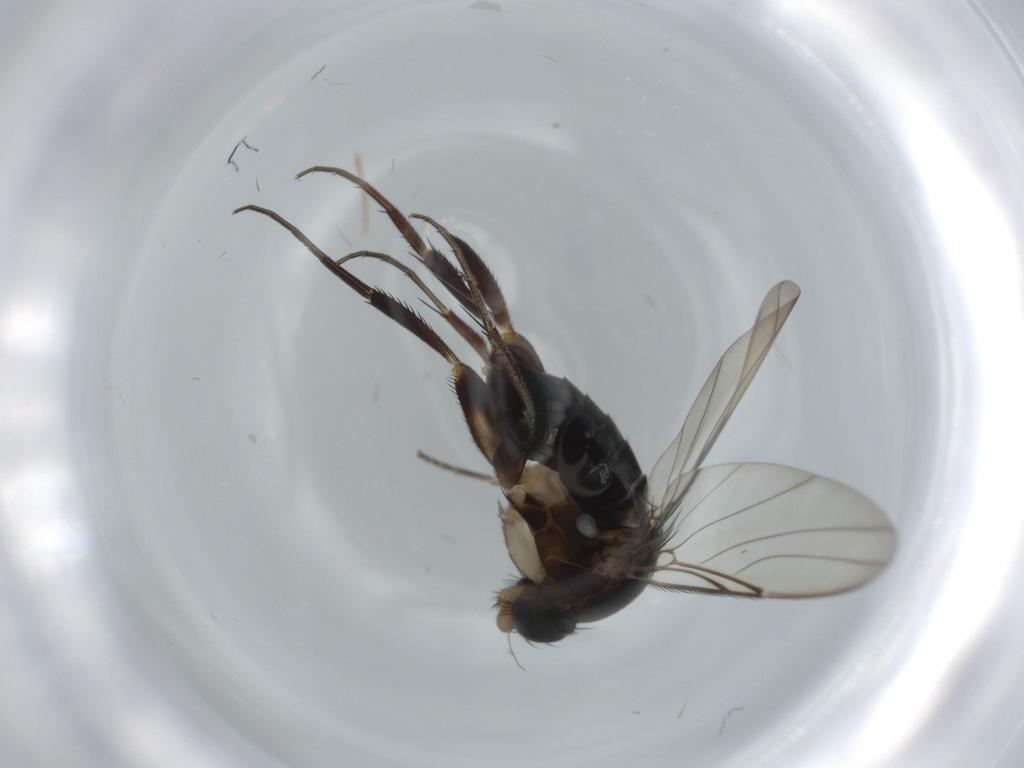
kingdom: Animalia
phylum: Arthropoda
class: Insecta
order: Diptera
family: Phoridae
